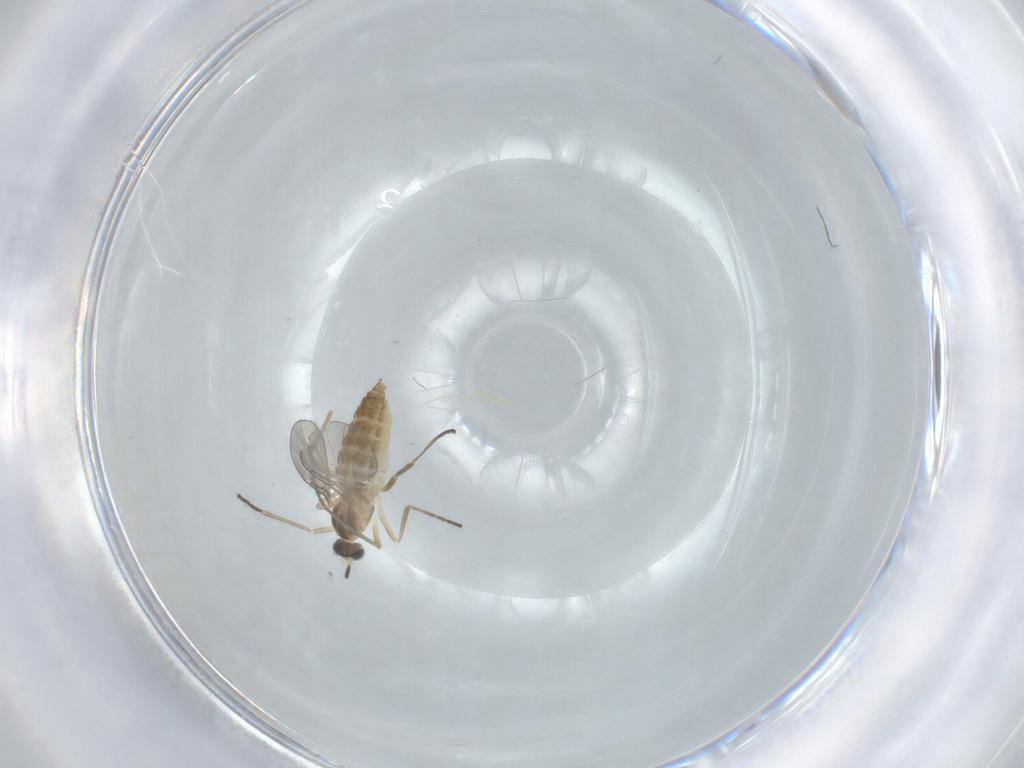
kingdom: Animalia
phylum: Arthropoda
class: Insecta
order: Diptera
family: Cecidomyiidae
